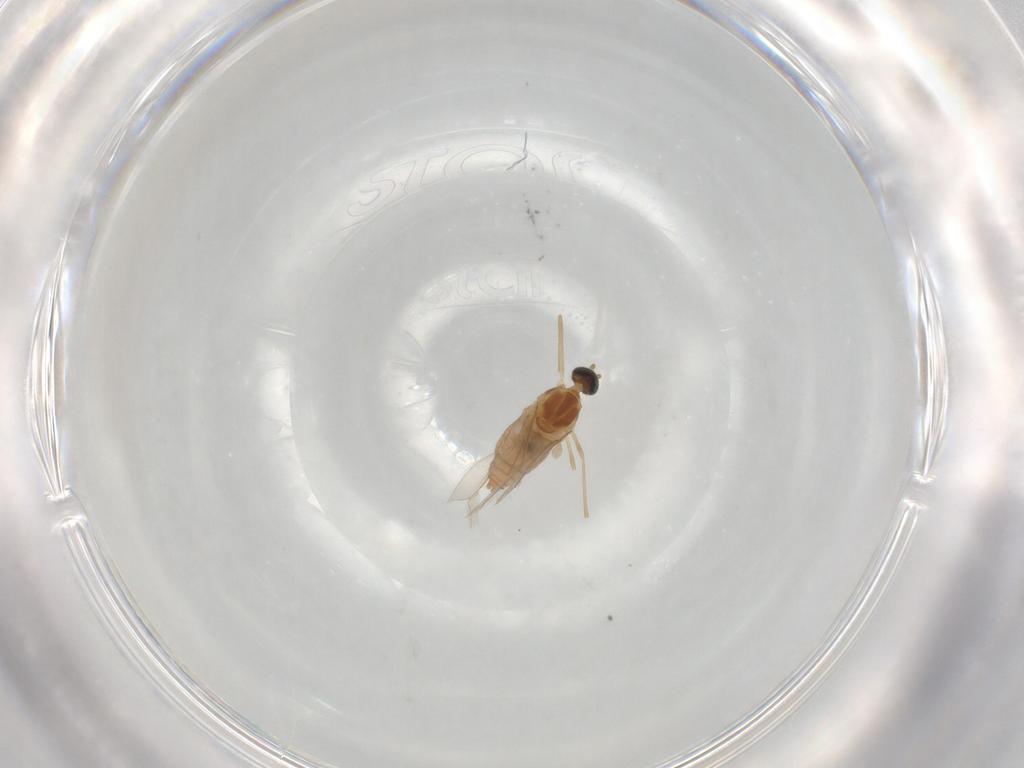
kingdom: Animalia
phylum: Arthropoda
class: Insecta
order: Diptera
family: Cecidomyiidae
